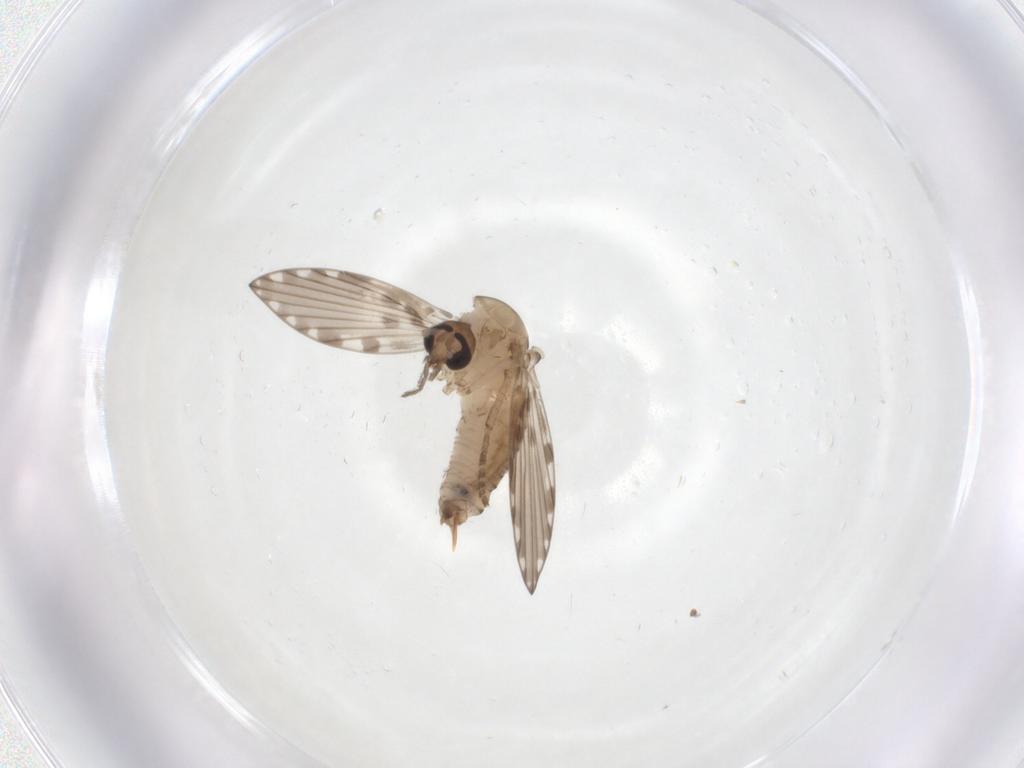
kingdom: Animalia
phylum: Arthropoda
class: Insecta
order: Diptera
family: Psychodidae
